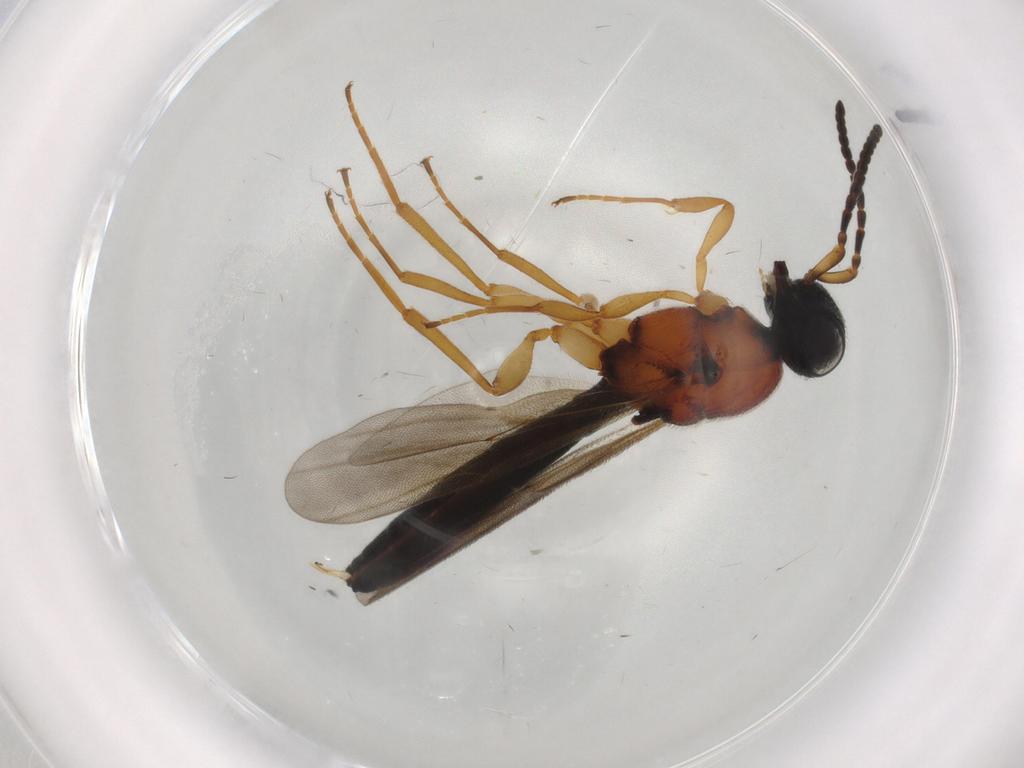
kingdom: Animalia
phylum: Arthropoda
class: Insecta
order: Hymenoptera
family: Scelionidae
